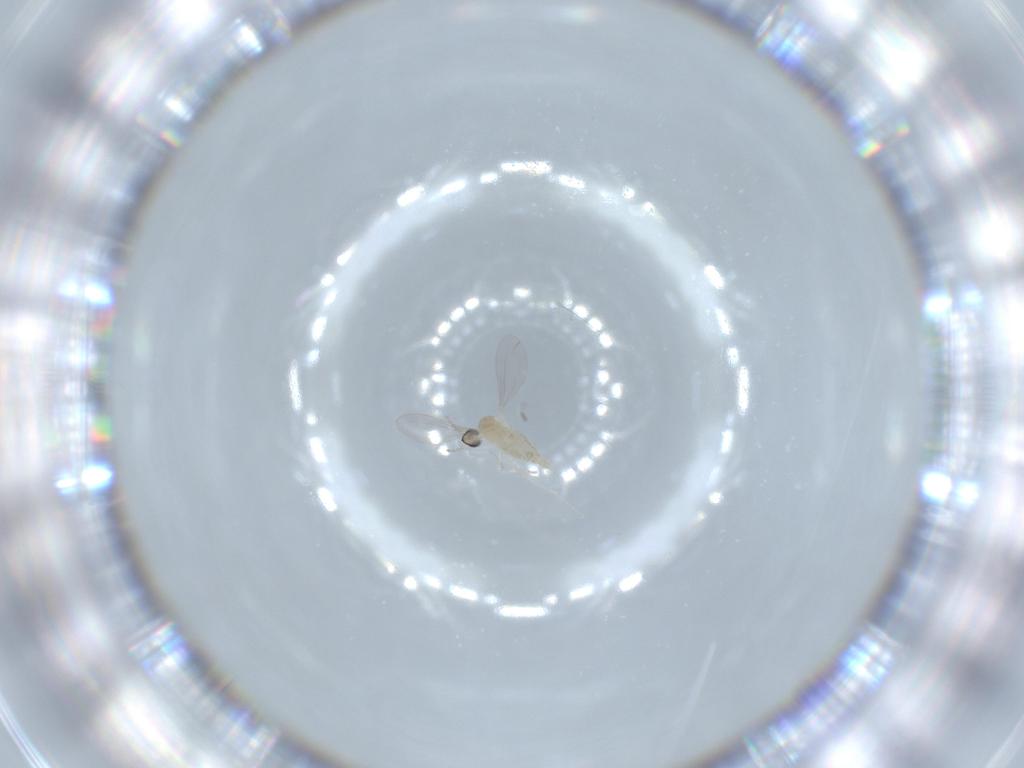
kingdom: Animalia
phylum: Arthropoda
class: Insecta
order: Diptera
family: Cecidomyiidae
